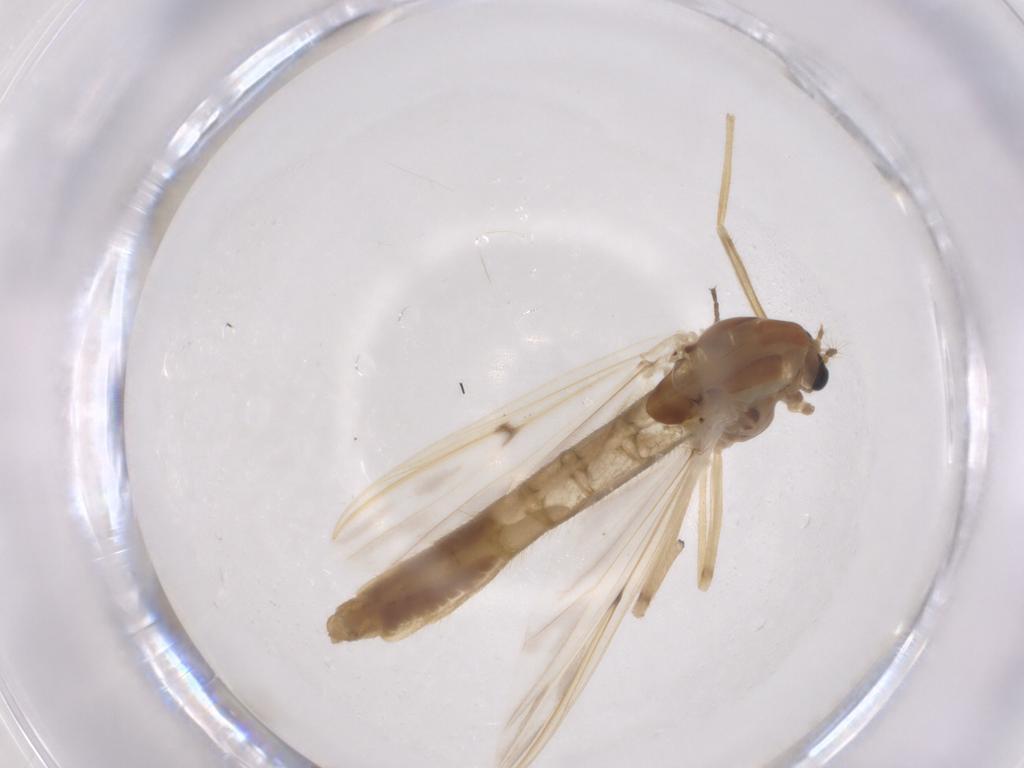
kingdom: Animalia
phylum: Arthropoda
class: Insecta
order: Diptera
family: Chironomidae
